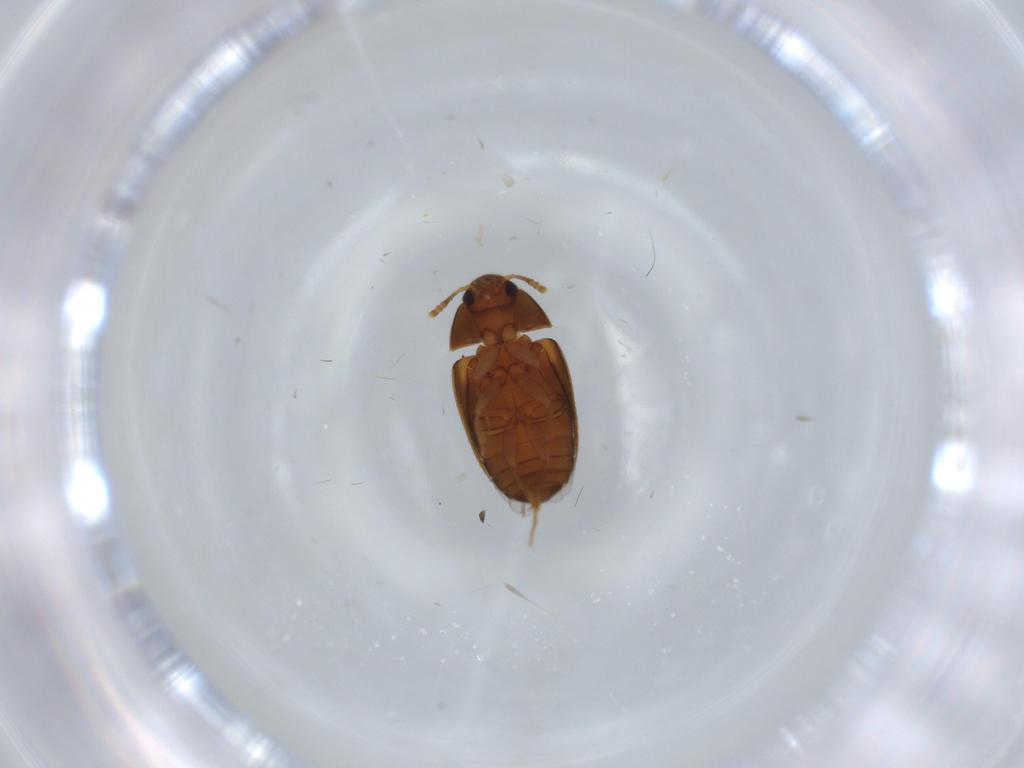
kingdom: Animalia
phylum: Arthropoda
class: Insecta
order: Coleoptera
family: Mycetophagidae
